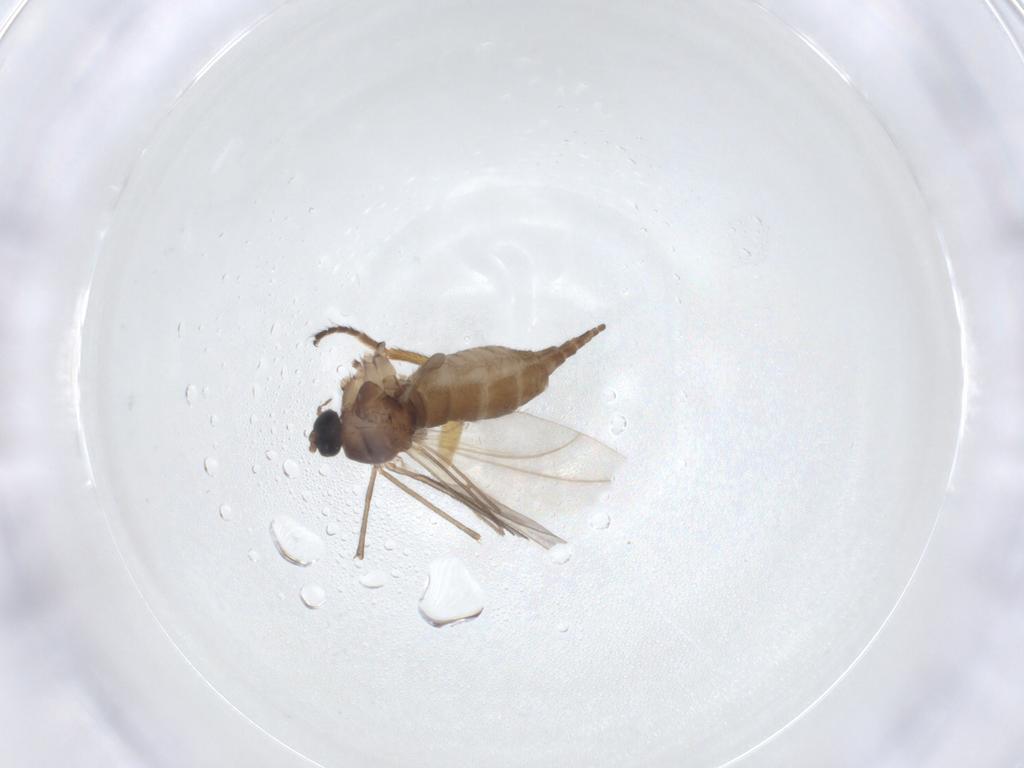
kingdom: Animalia
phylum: Arthropoda
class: Insecta
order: Diptera
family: Sciaridae
